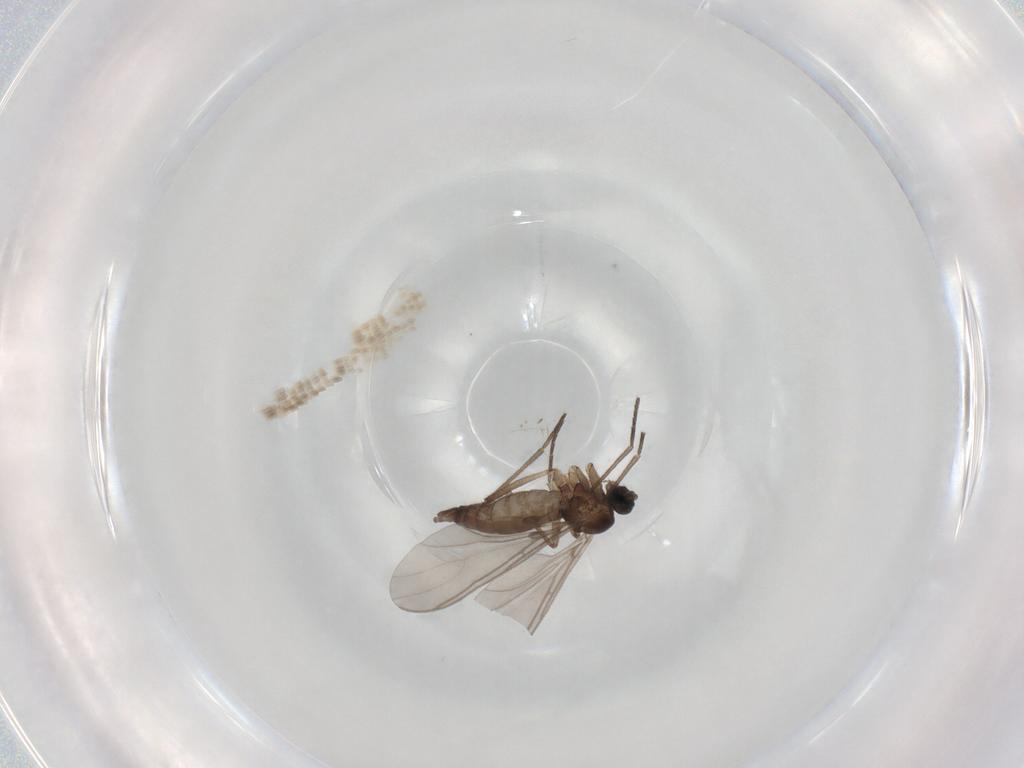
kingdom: Animalia
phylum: Arthropoda
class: Insecta
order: Diptera
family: Sciaridae
